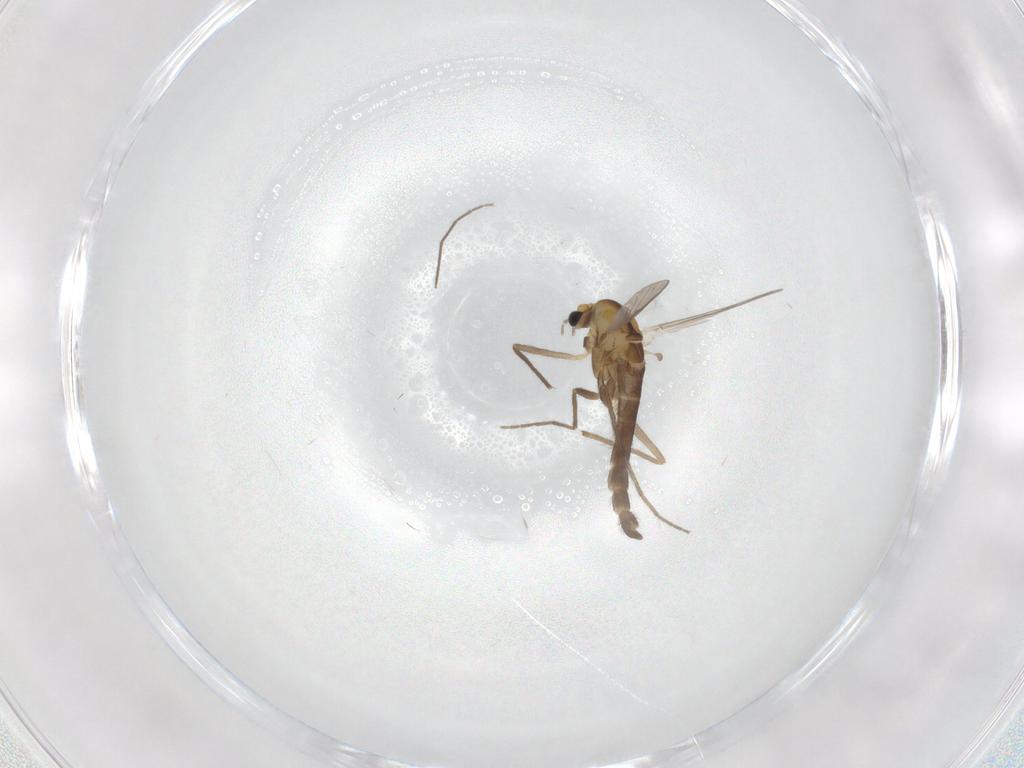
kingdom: Animalia
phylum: Arthropoda
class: Insecta
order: Diptera
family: Chironomidae
